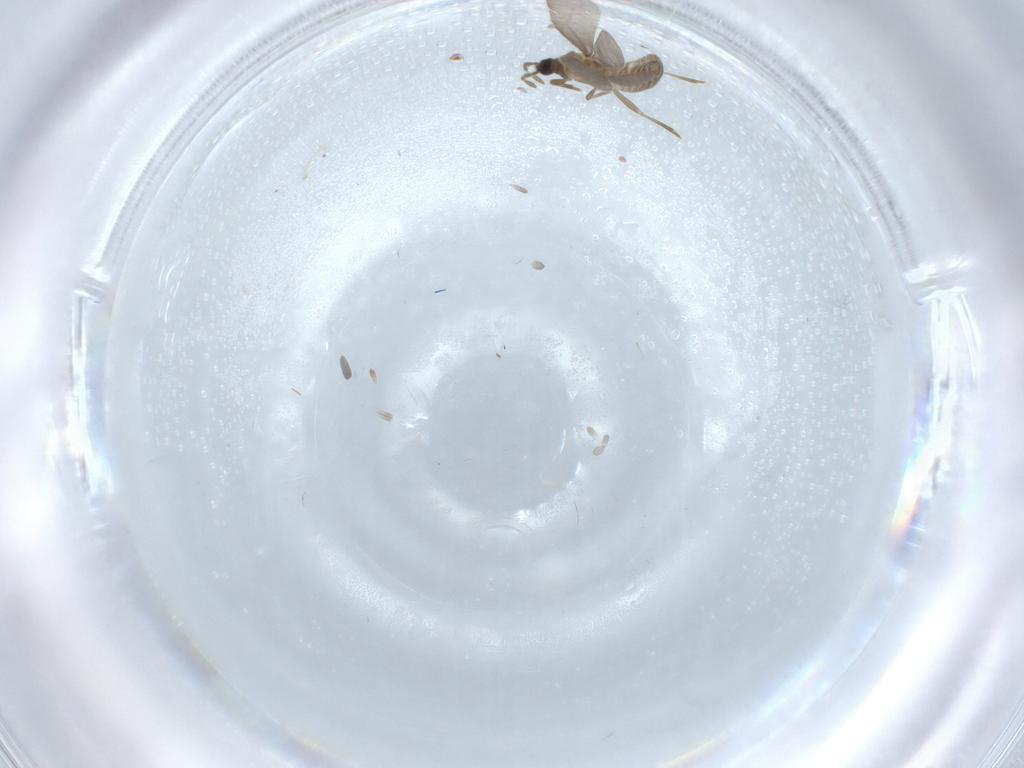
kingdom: Animalia
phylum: Arthropoda
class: Insecta
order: Hemiptera
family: Enicocephalidae
